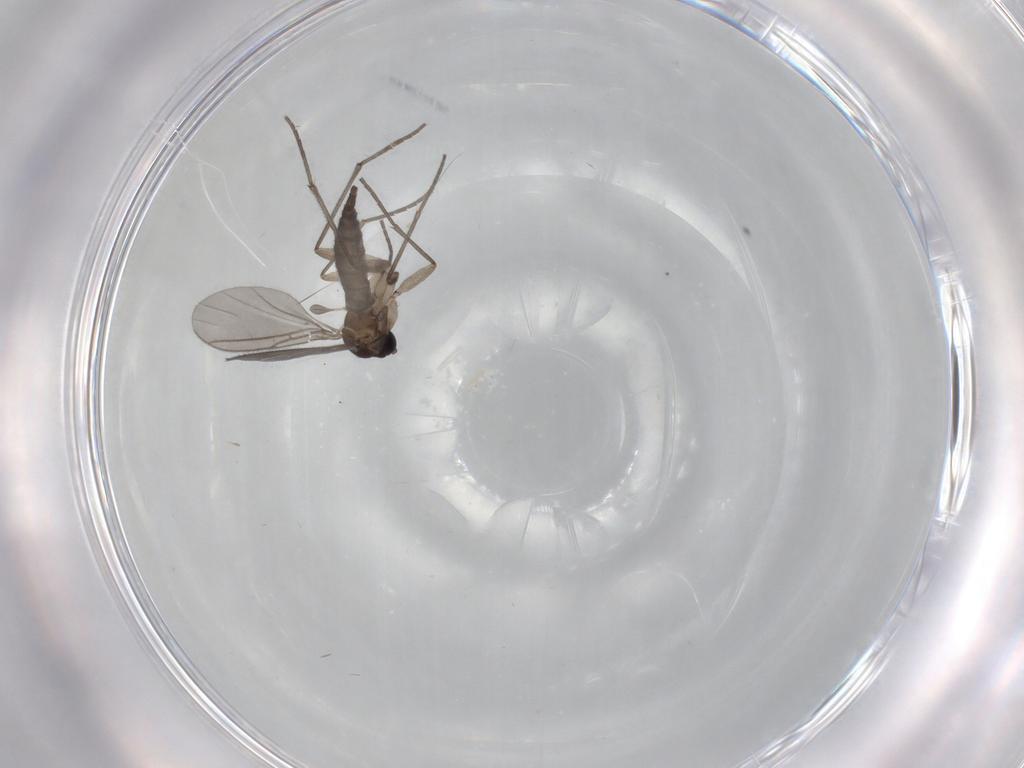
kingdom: Animalia
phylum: Arthropoda
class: Insecta
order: Diptera
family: Sciaridae
